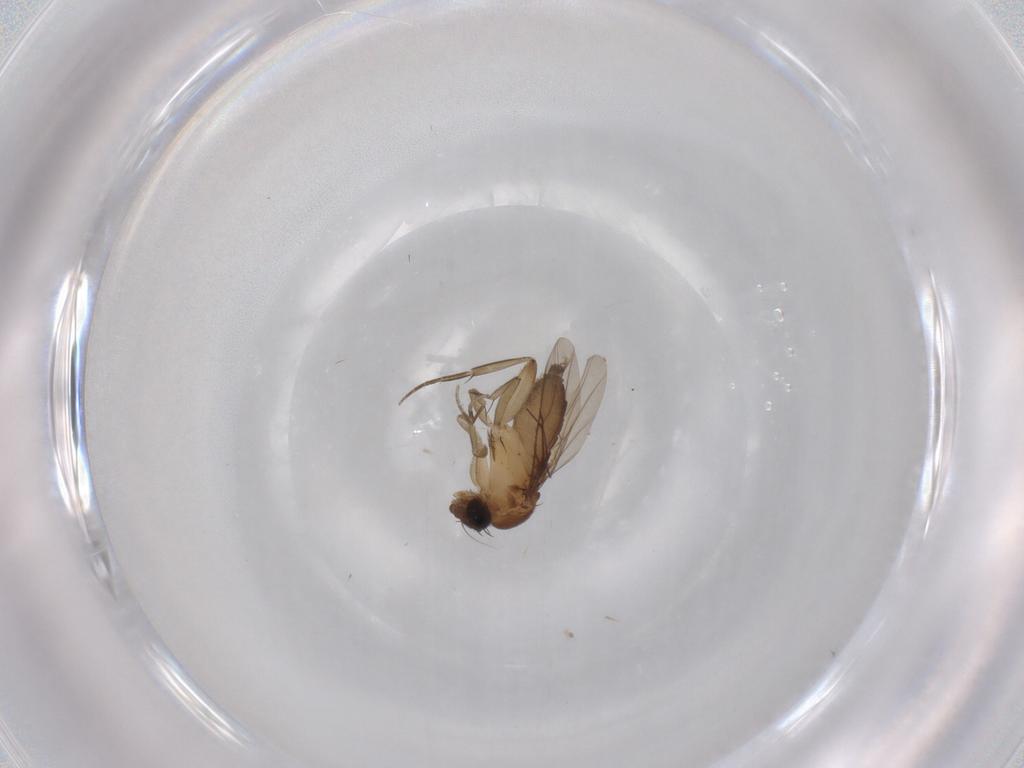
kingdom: Animalia
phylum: Arthropoda
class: Insecta
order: Diptera
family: Phoridae
